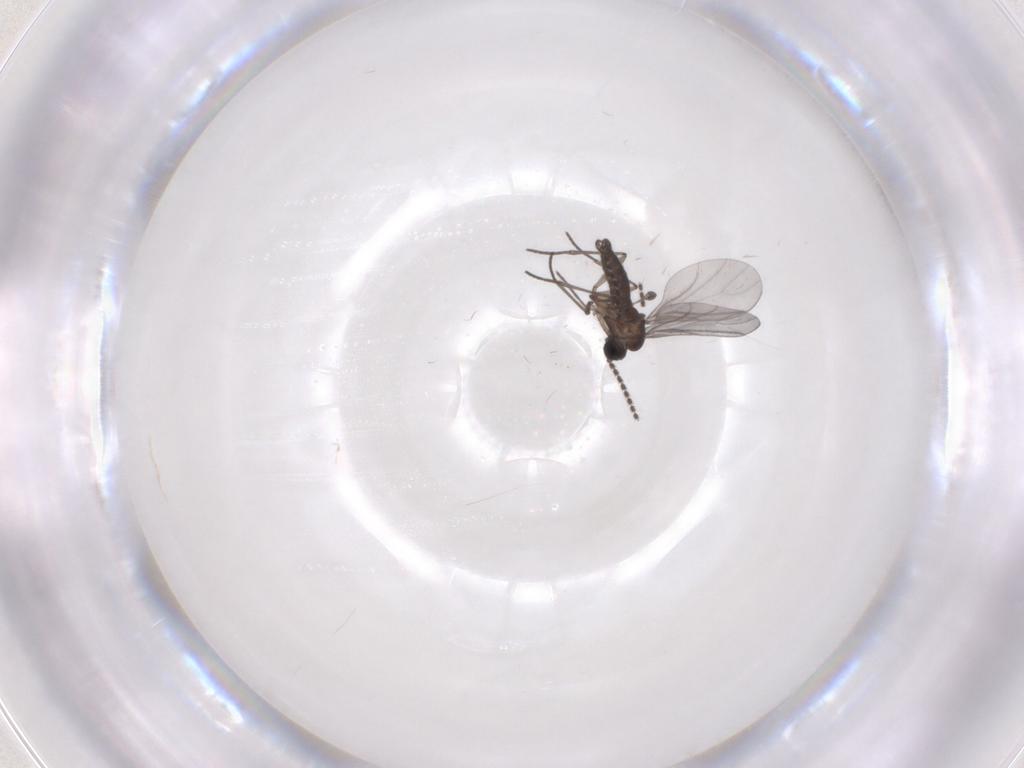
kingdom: Animalia
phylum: Arthropoda
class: Insecta
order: Diptera
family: Sciaridae
